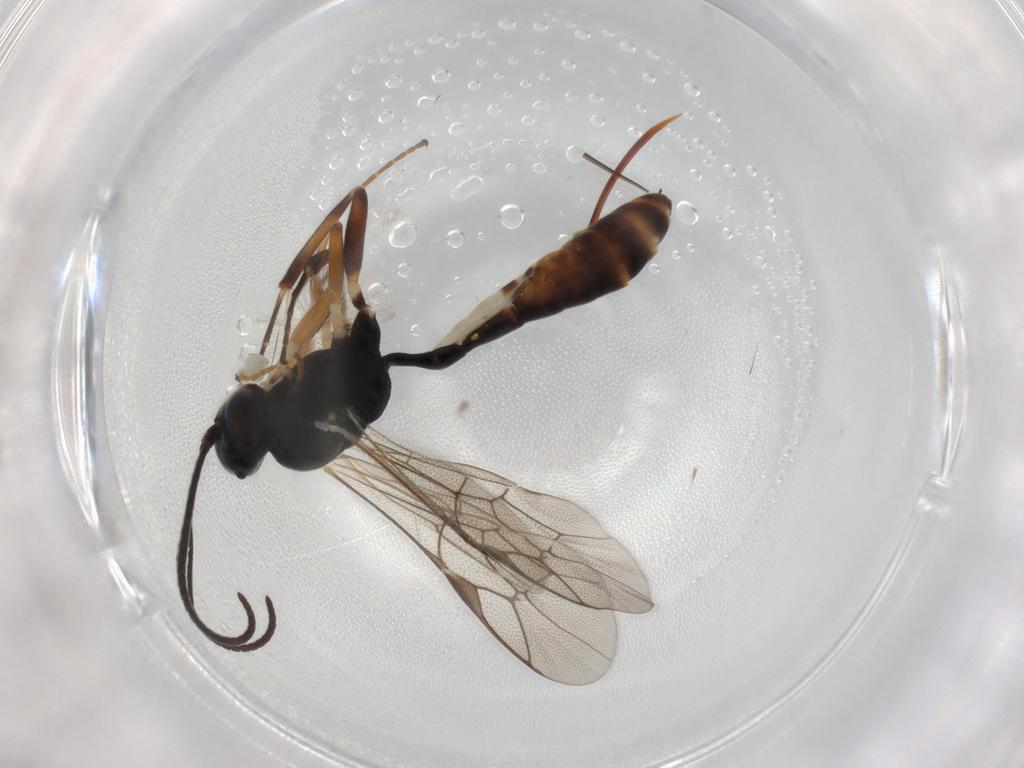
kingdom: Animalia
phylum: Arthropoda
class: Insecta
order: Hymenoptera
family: Ichneumonidae
